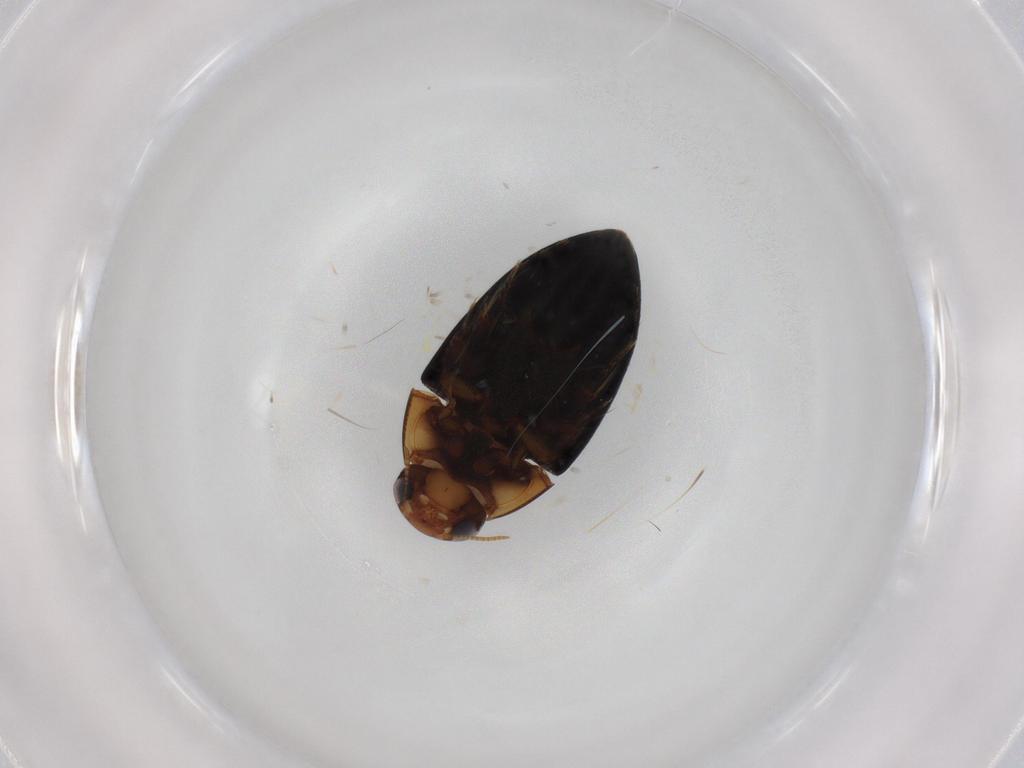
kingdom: Animalia
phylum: Arthropoda
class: Insecta
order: Coleoptera
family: Noteridae
